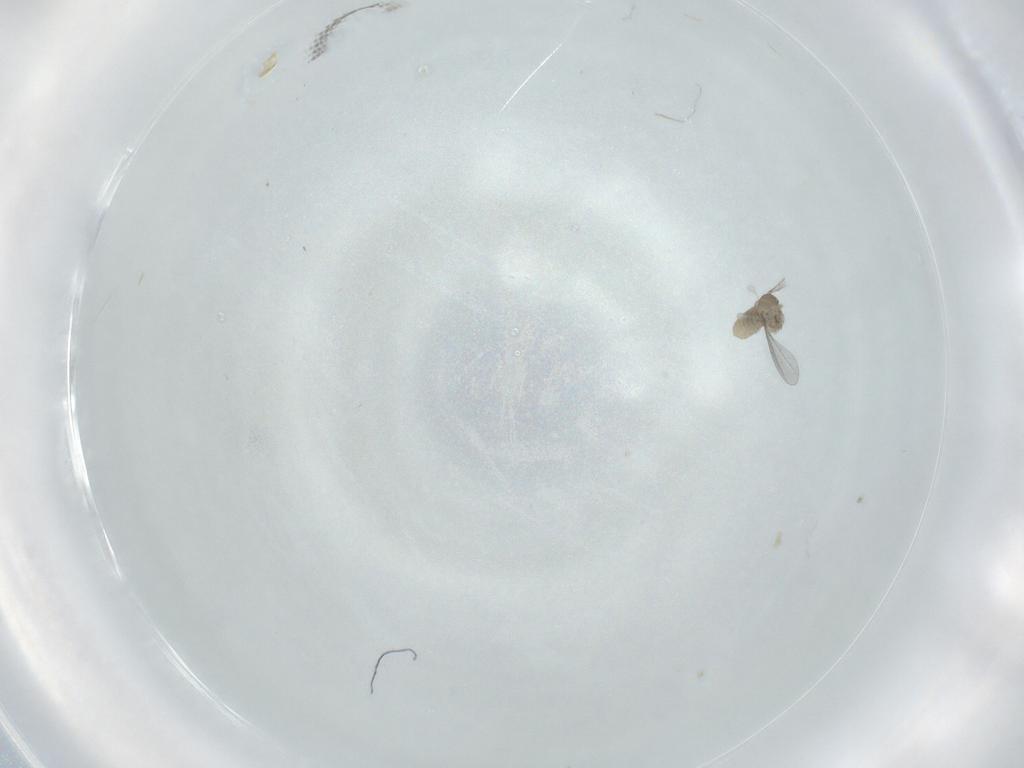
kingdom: Animalia
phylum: Arthropoda
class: Insecta
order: Diptera
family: Cecidomyiidae
